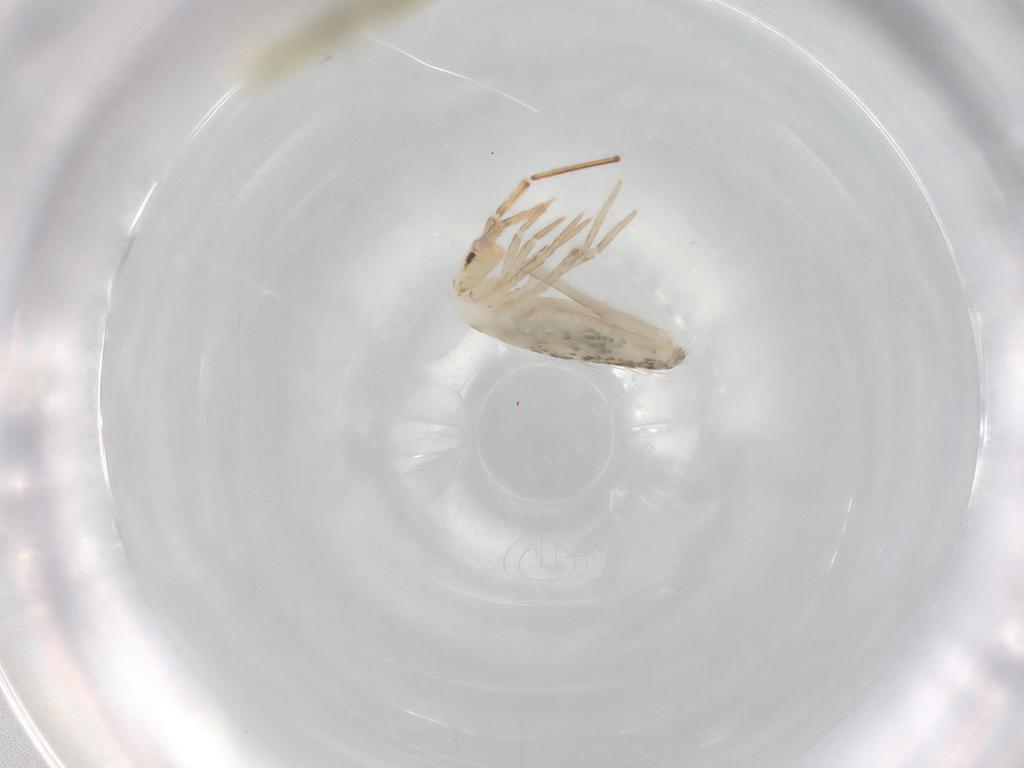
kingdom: Animalia
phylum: Arthropoda
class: Collembola
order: Entomobryomorpha
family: Entomobryidae
